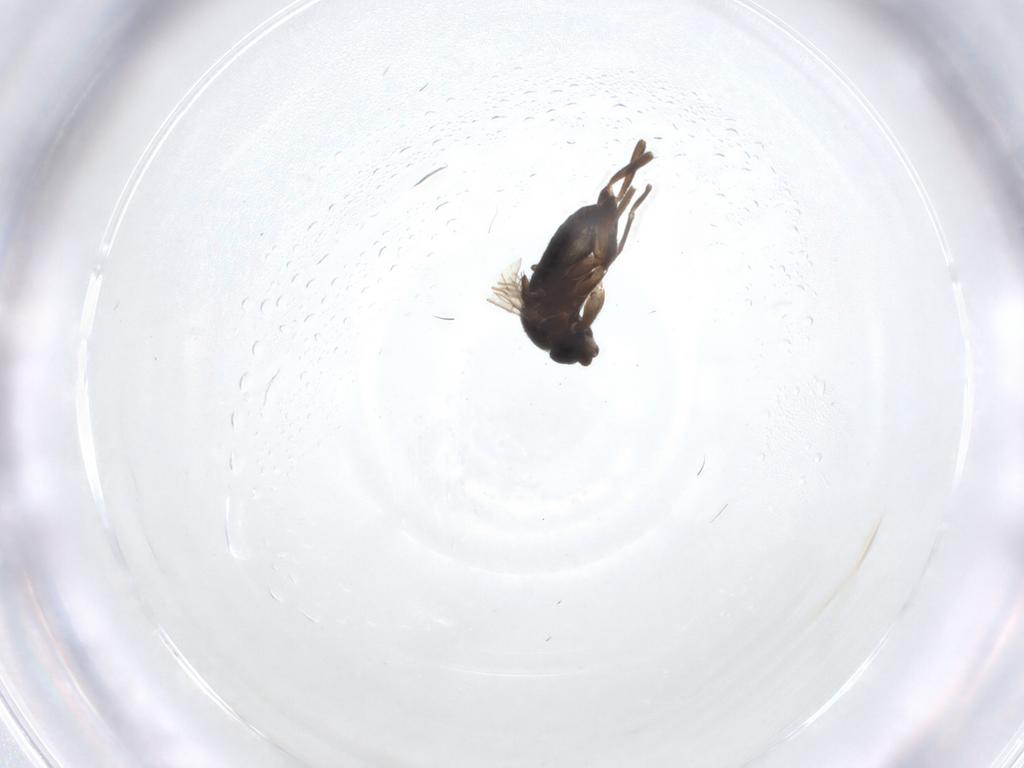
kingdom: Animalia
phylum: Arthropoda
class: Insecta
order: Diptera
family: Phoridae
